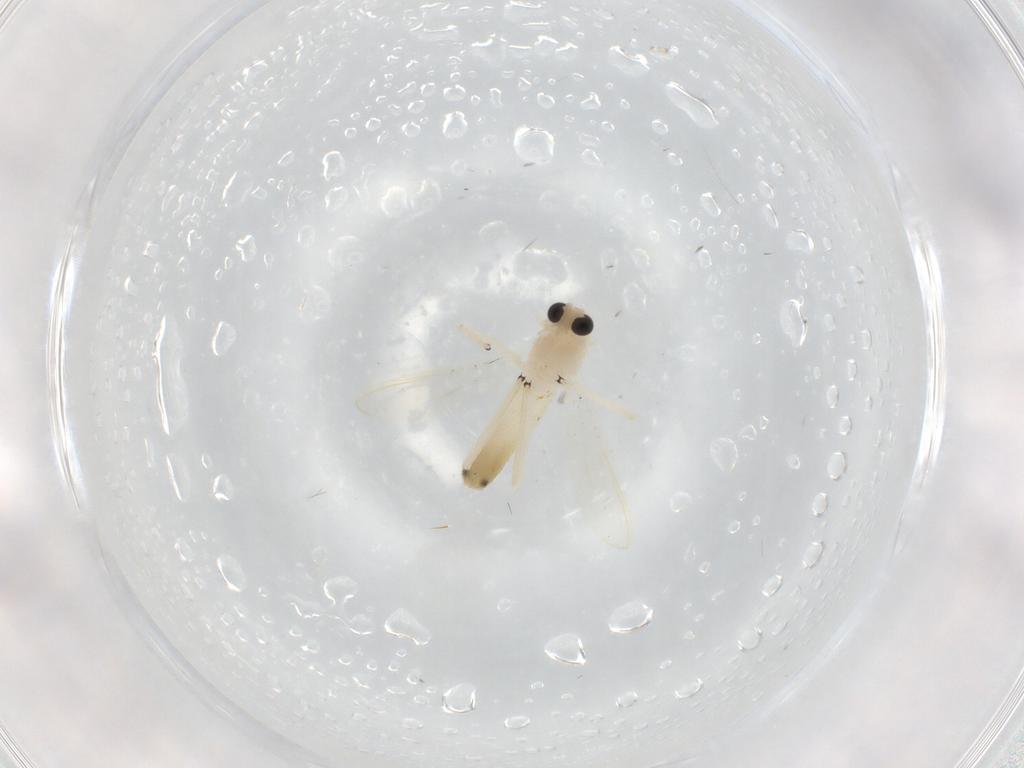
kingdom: Animalia
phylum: Arthropoda
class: Insecta
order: Diptera
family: Chironomidae
